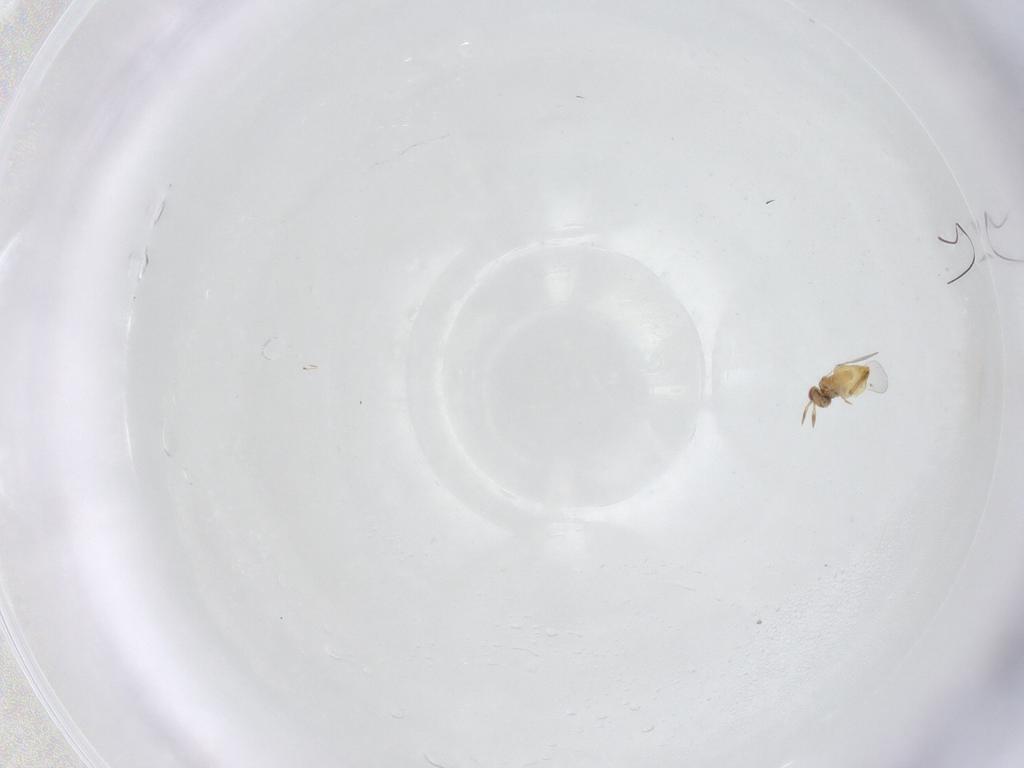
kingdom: Animalia
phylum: Arthropoda
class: Insecta
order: Hymenoptera
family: Trichogrammatidae
